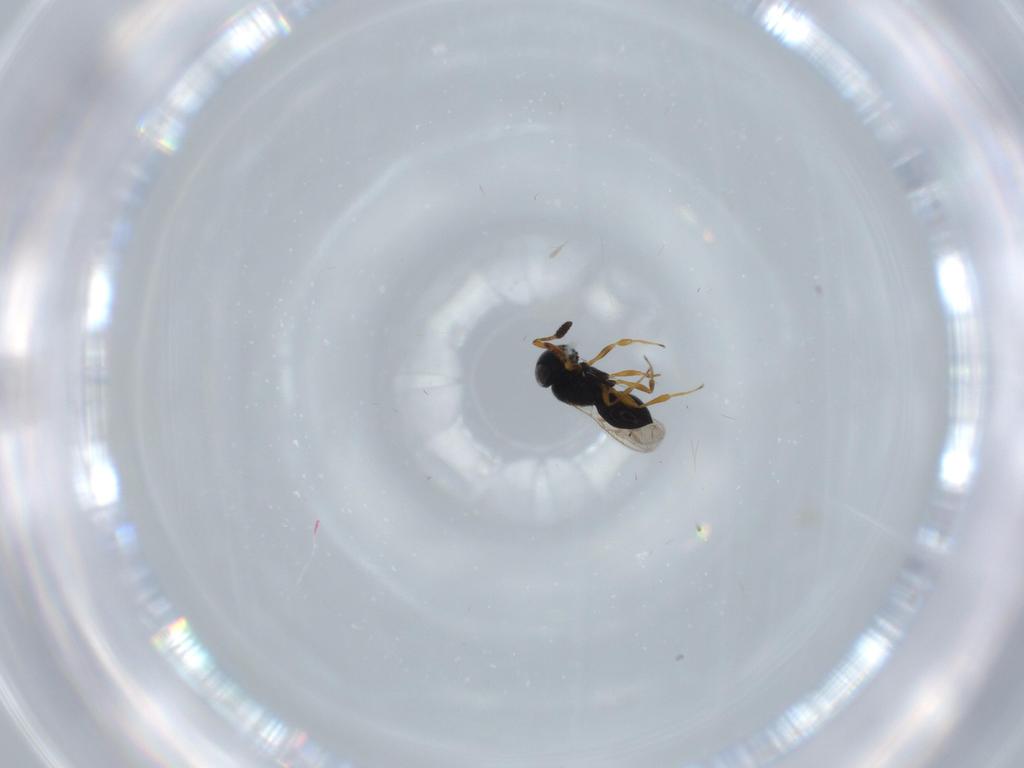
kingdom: Animalia
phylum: Arthropoda
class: Insecta
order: Hymenoptera
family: Scelionidae
